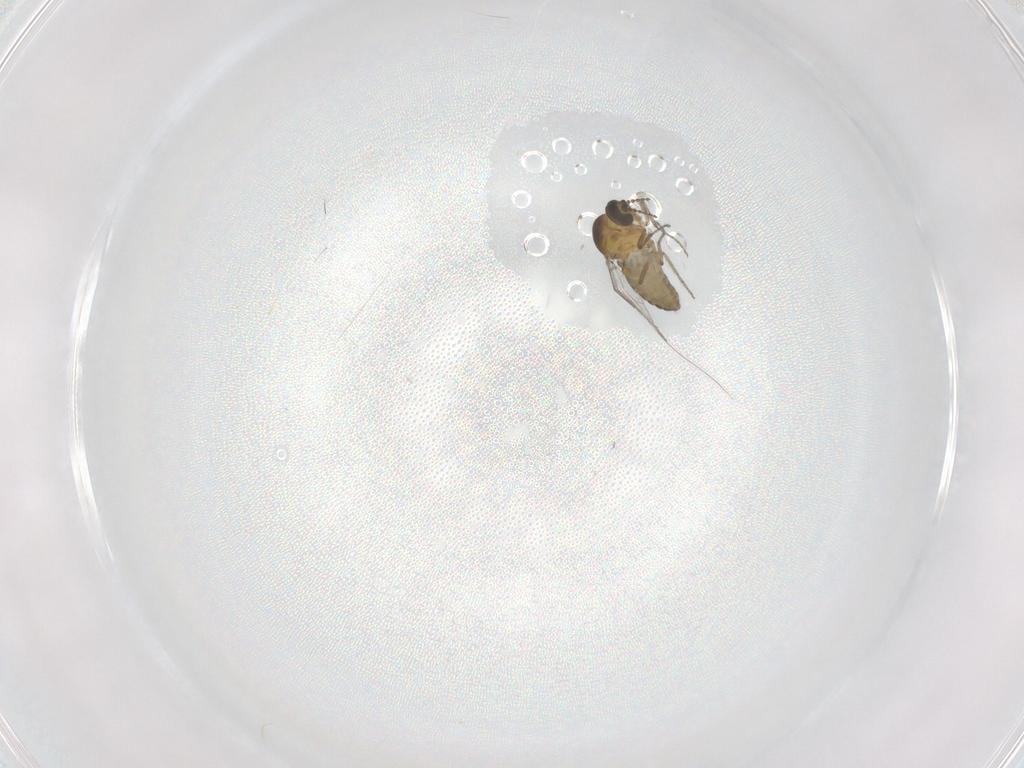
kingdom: Animalia
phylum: Arthropoda
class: Insecta
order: Diptera
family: Ceratopogonidae
